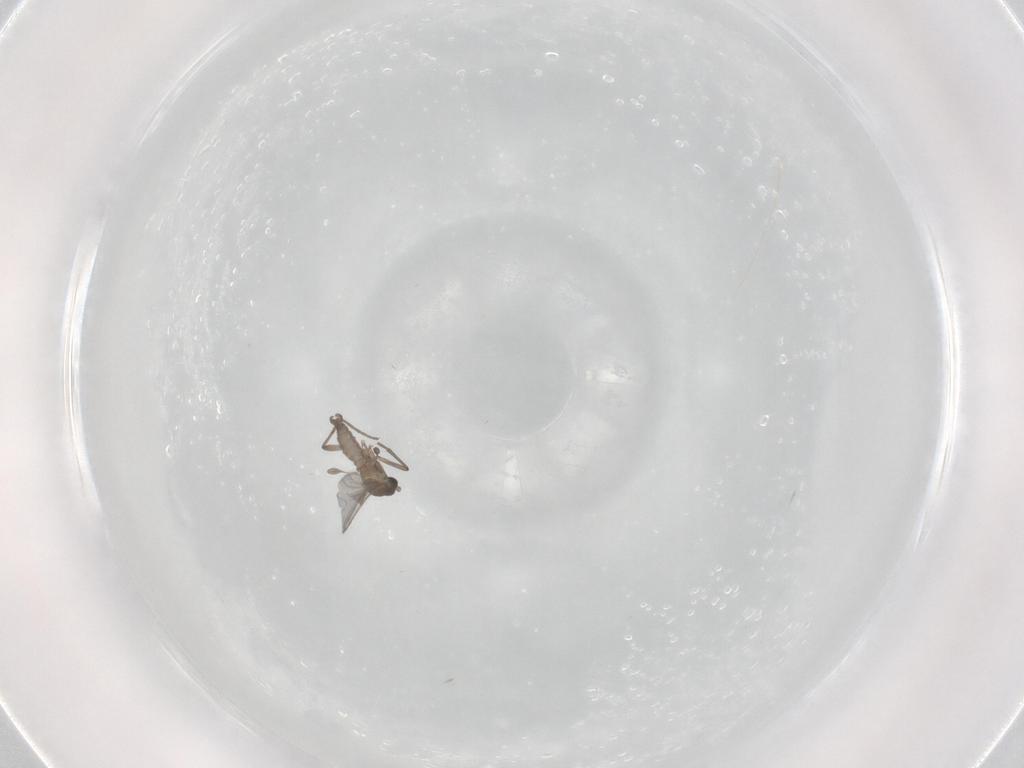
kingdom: Animalia
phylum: Arthropoda
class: Insecta
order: Diptera
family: Sciaridae
